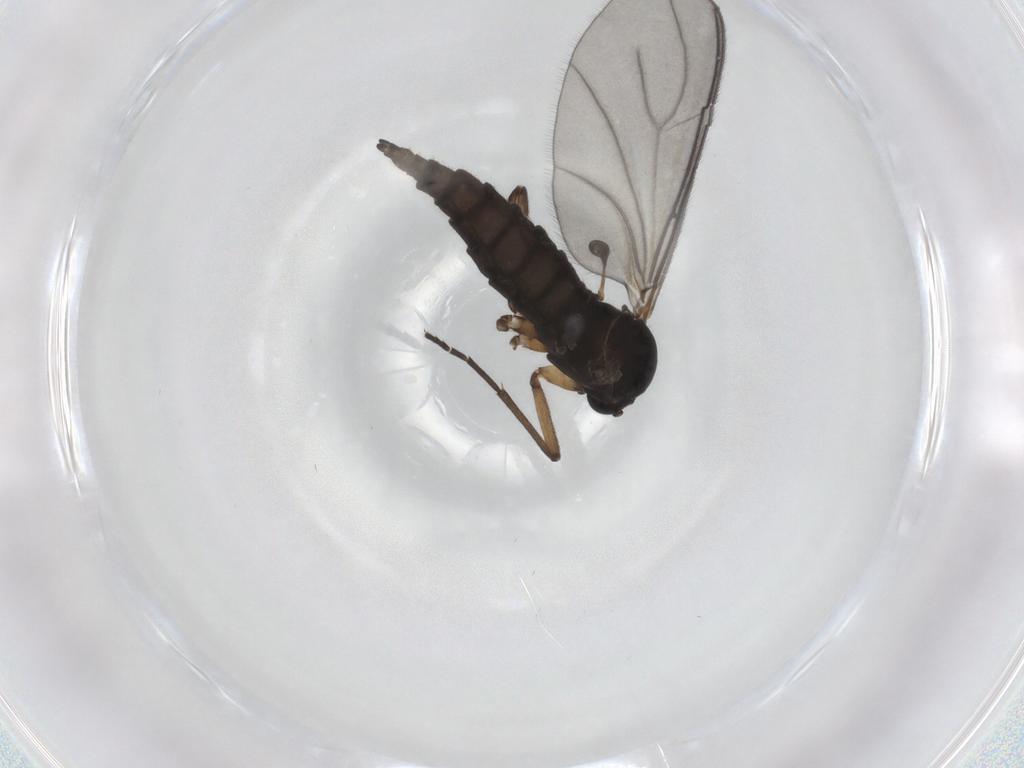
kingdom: Animalia
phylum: Arthropoda
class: Insecta
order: Diptera
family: Sciaridae
